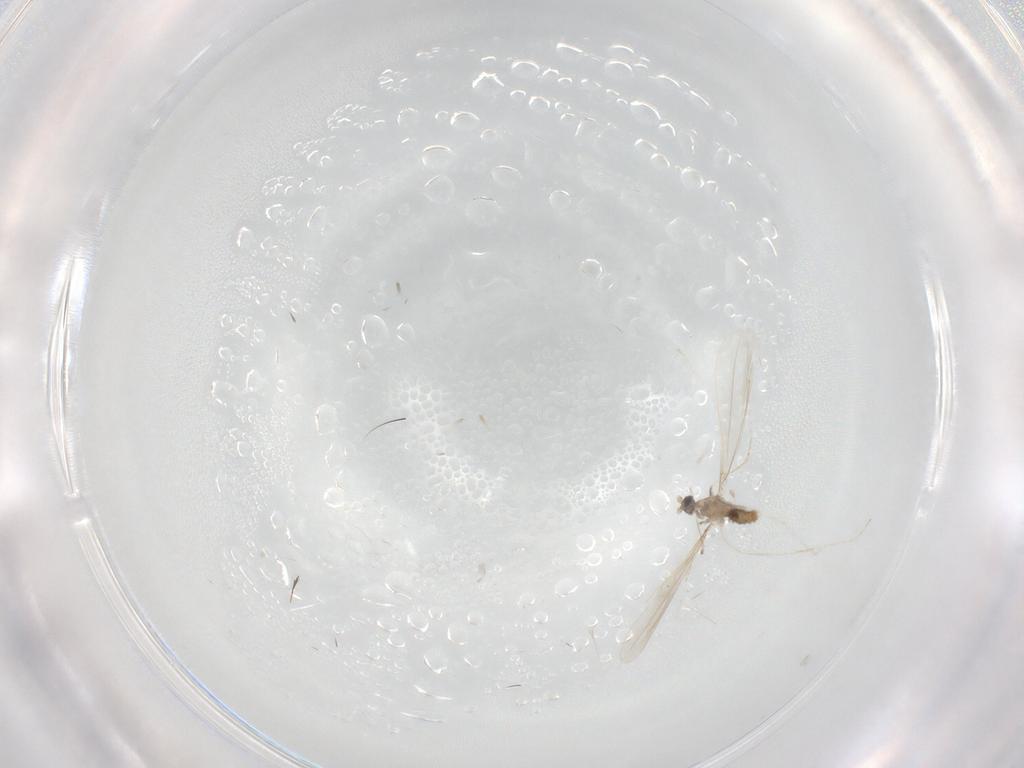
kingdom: Animalia
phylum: Arthropoda
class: Insecta
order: Diptera
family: Cecidomyiidae
